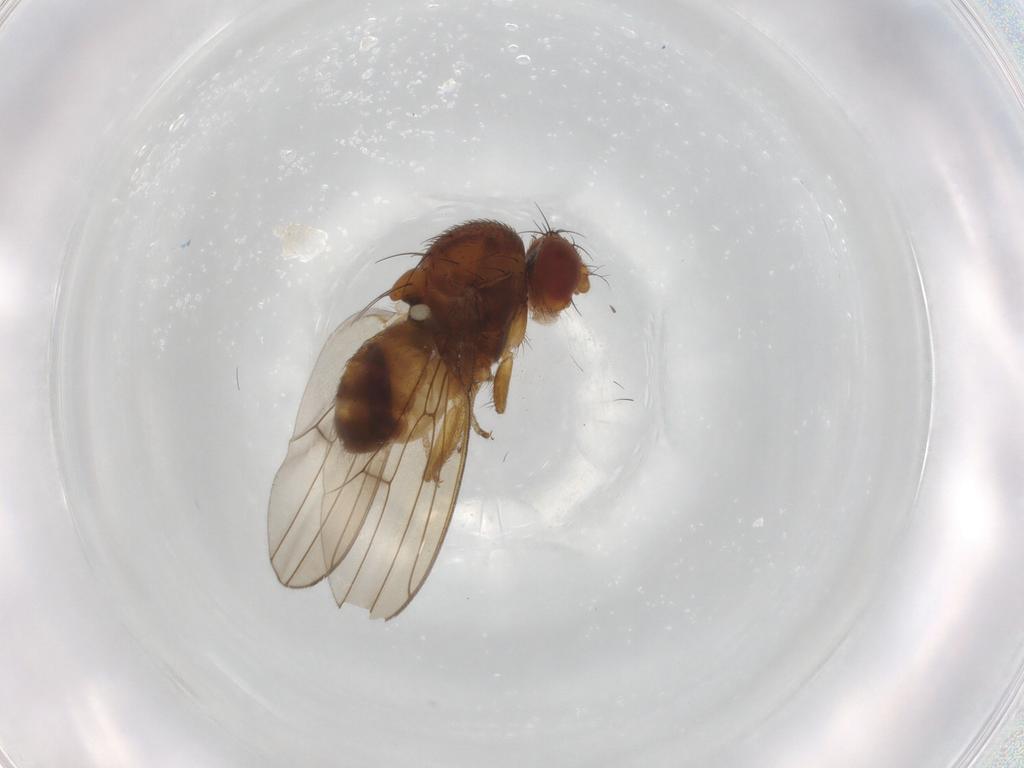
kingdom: Animalia
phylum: Arthropoda
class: Insecta
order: Diptera
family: Drosophilidae
